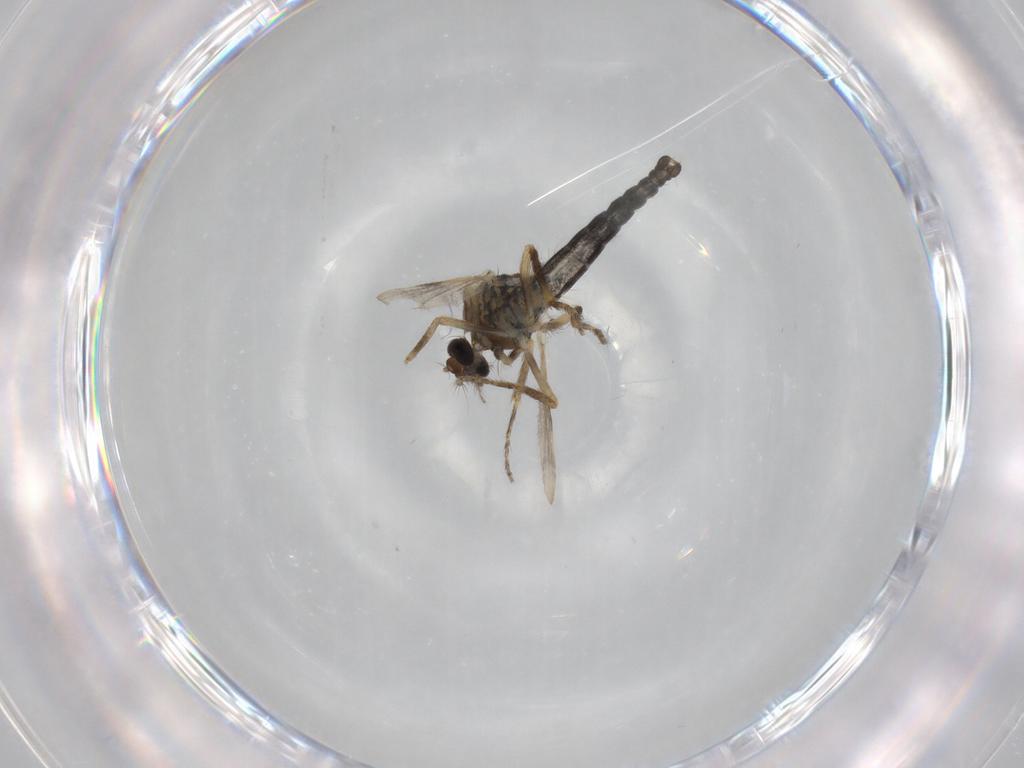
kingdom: Animalia
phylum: Arthropoda
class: Insecta
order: Diptera
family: Ceratopogonidae
